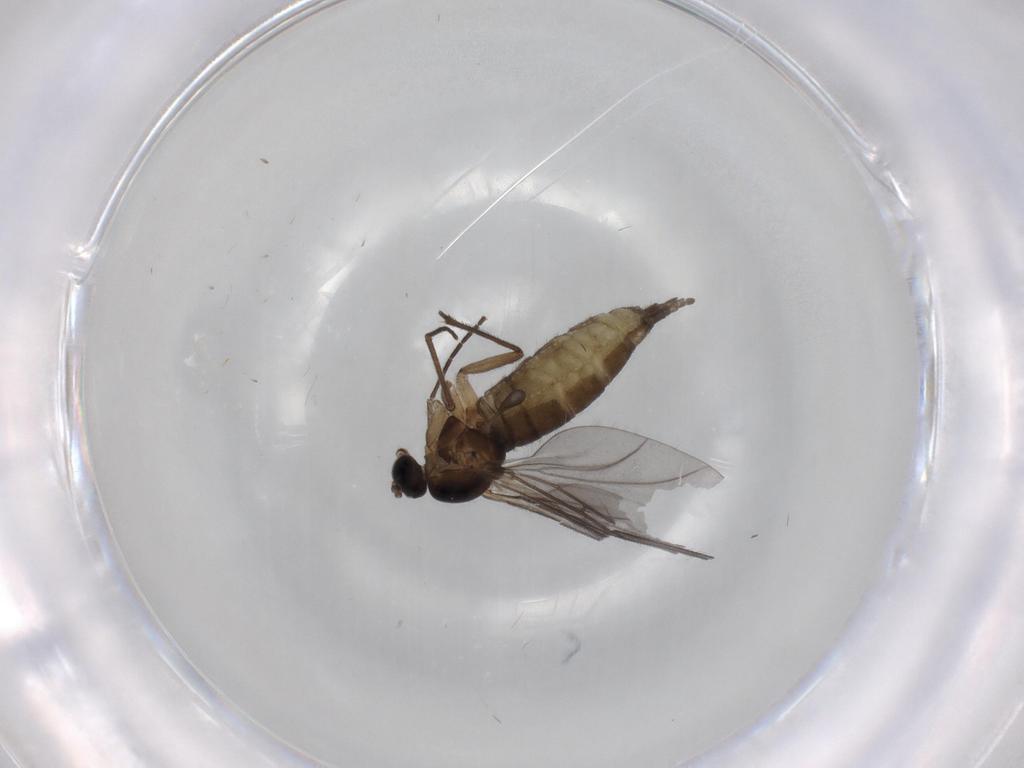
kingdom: Animalia
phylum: Arthropoda
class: Insecta
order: Diptera
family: Sciaridae
